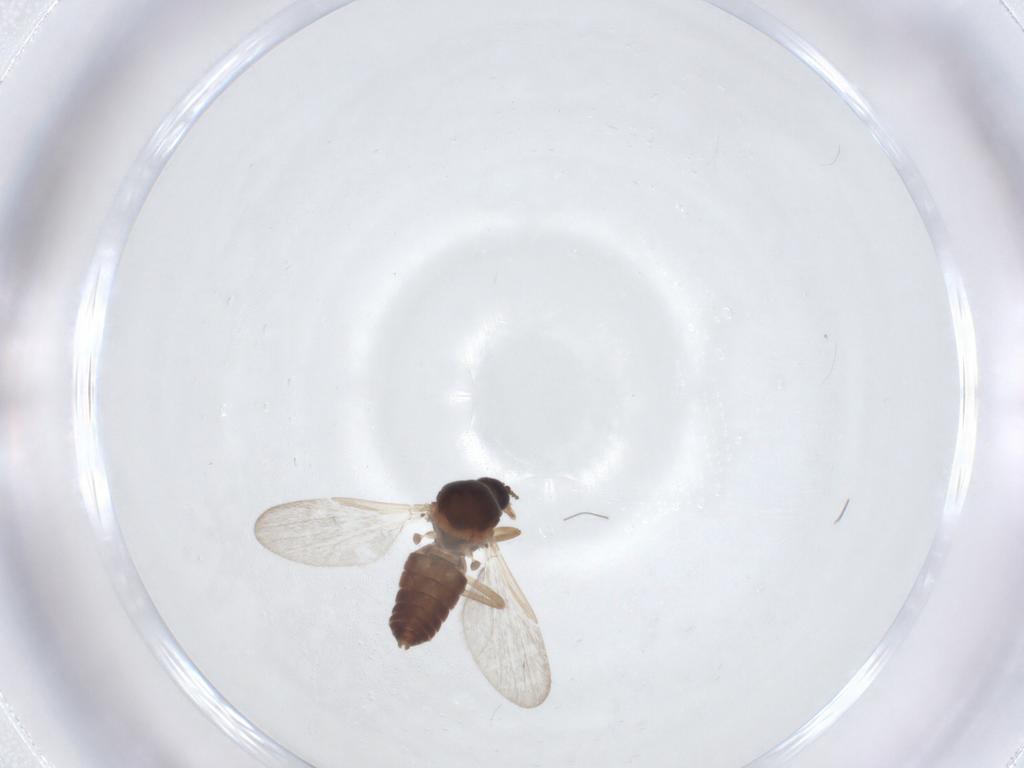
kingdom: Animalia
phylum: Arthropoda
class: Insecta
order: Diptera
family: Ceratopogonidae
